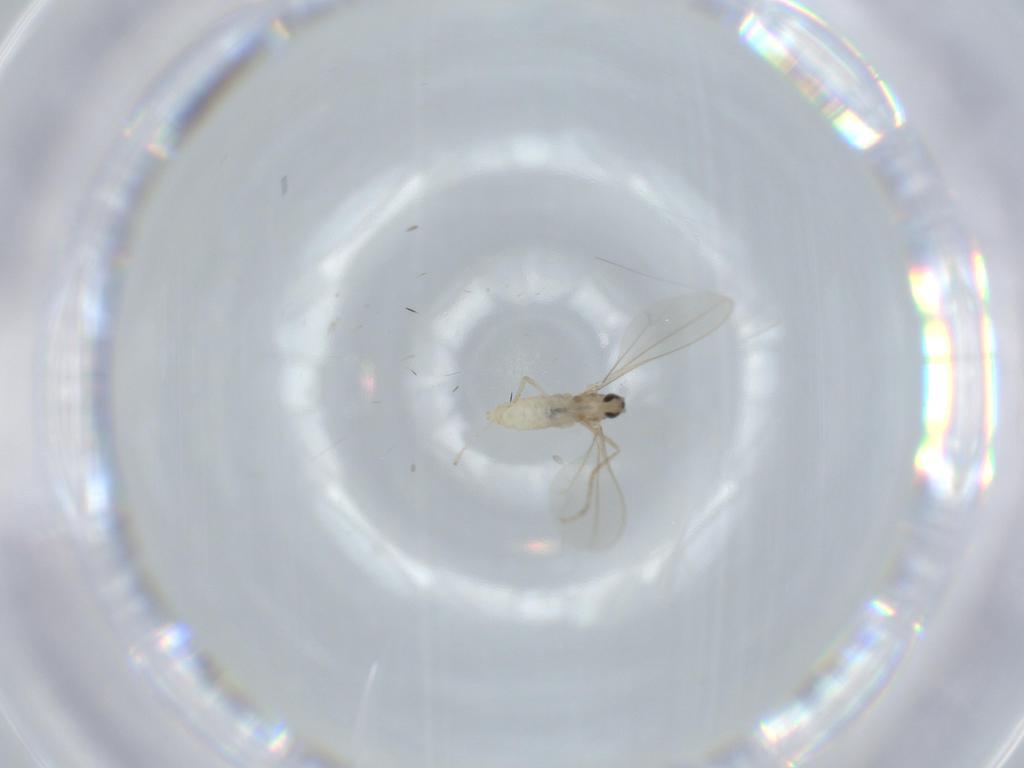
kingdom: Animalia
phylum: Arthropoda
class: Insecta
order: Diptera
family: Cecidomyiidae
